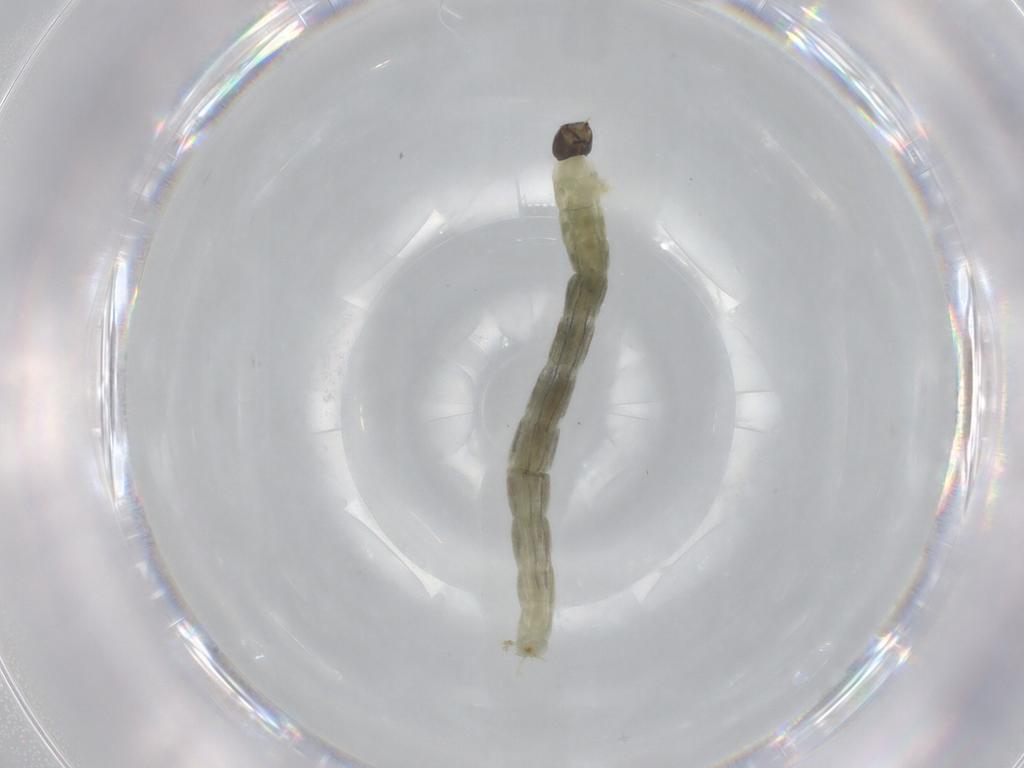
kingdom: Animalia
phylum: Arthropoda
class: Insecta
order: Diptera
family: Chironomidae
